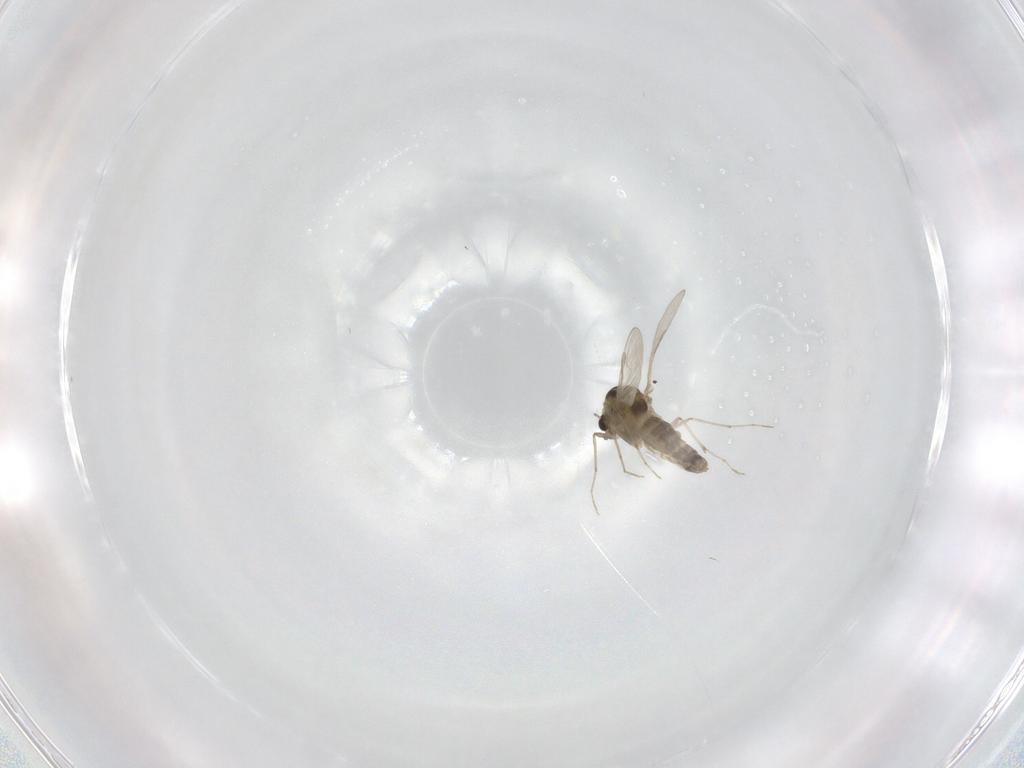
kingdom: Animalia
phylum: Arthropoda
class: Insecta
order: Diptera
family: Chironomidae
